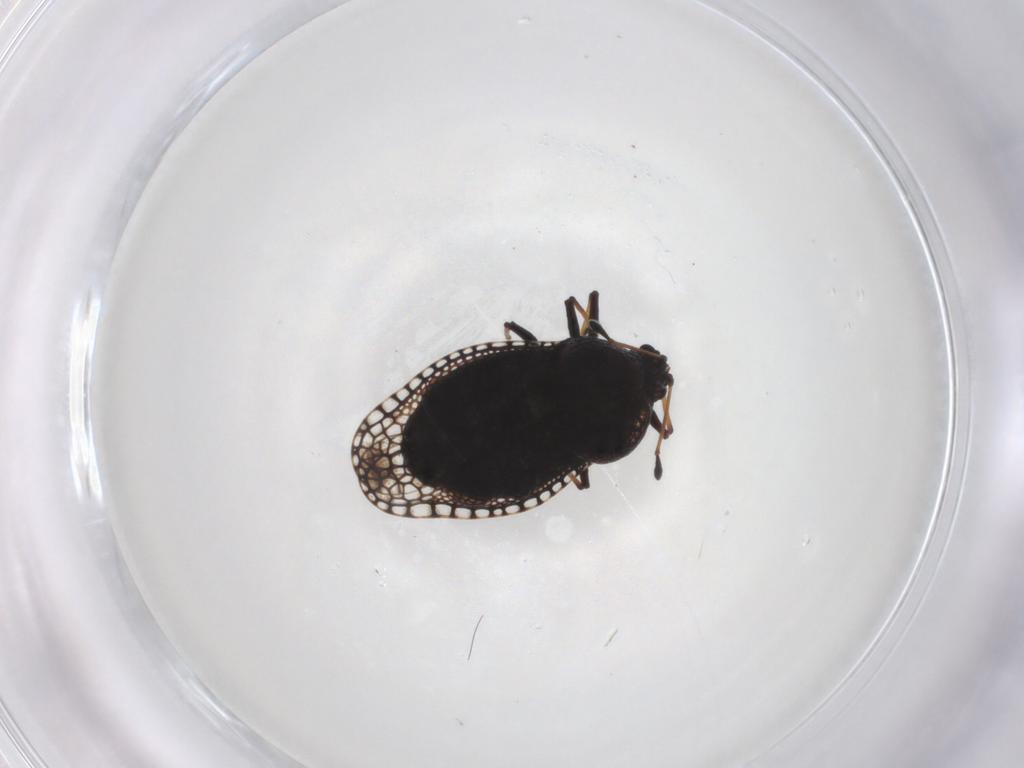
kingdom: Animalia
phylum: Arthropoda
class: Insecta
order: Hemiptera
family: Tingidae
